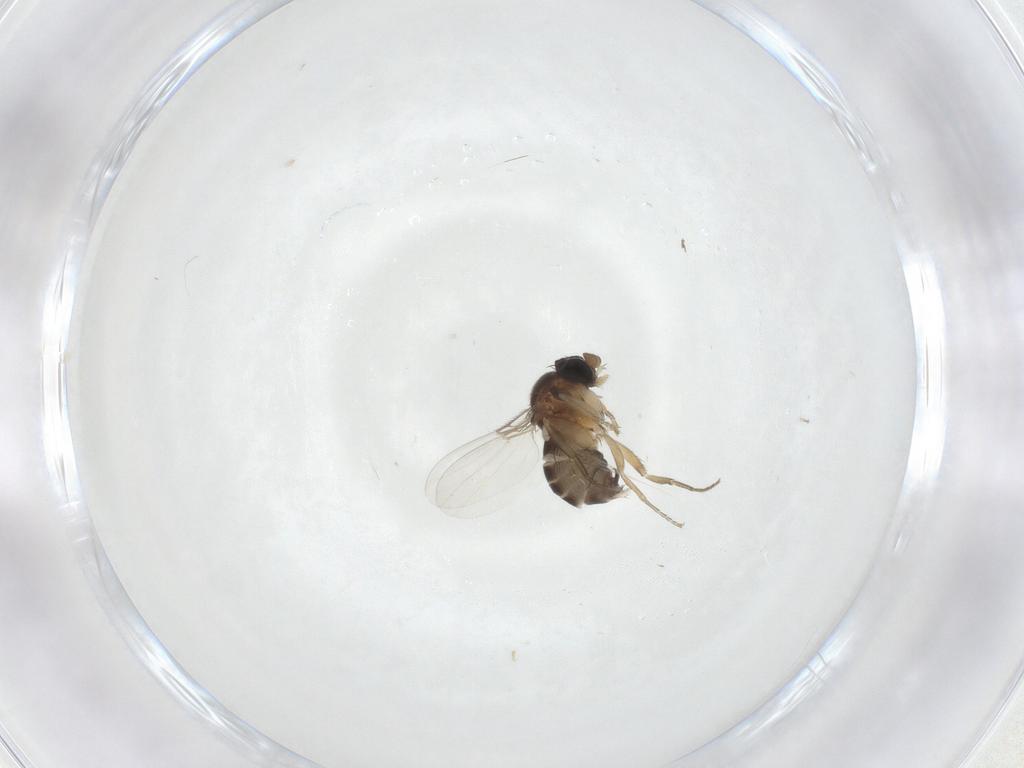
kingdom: Animalia
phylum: Arthropoda
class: Insecta
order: Diptera
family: Milichiidae
